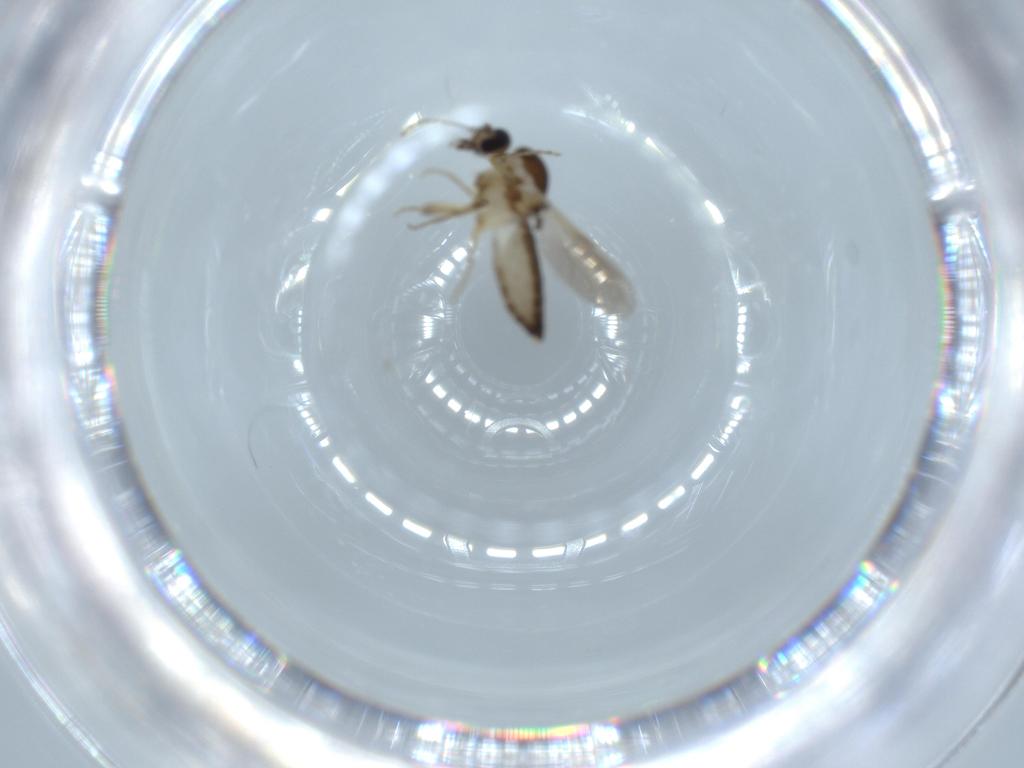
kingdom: Animalia
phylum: Arthropoda
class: Insecta
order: Diptera
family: Ceratopogonidae
